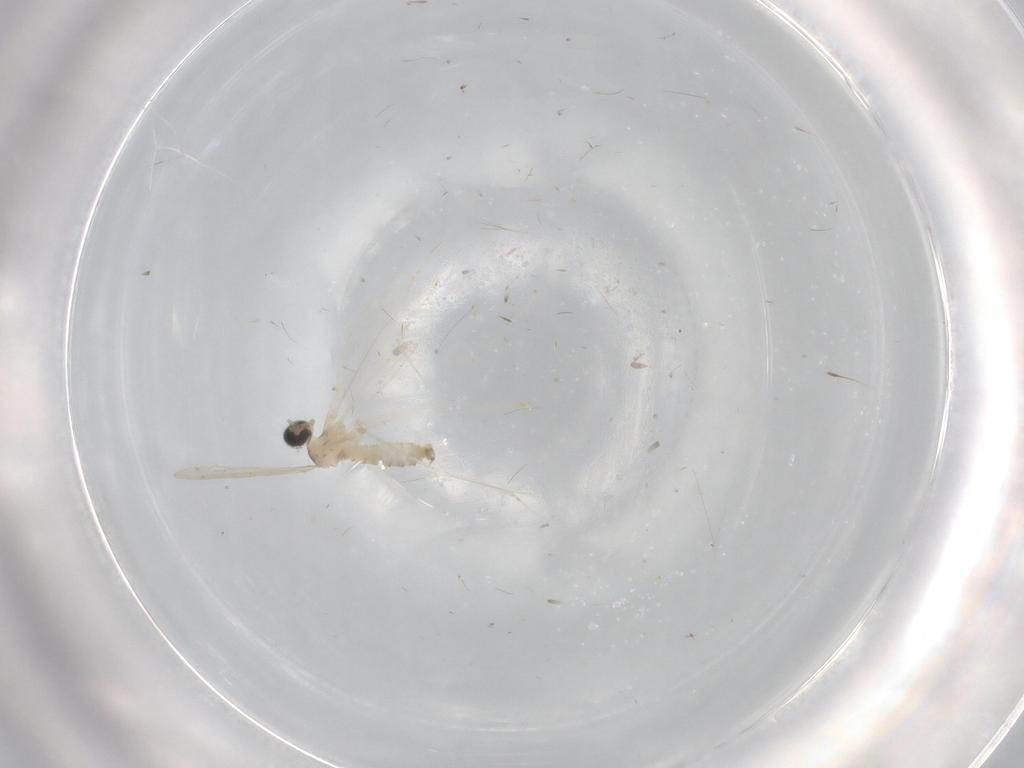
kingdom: Animalia
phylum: Arthropoda
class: Insecta
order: Diptera
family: Cecidomyiidae
